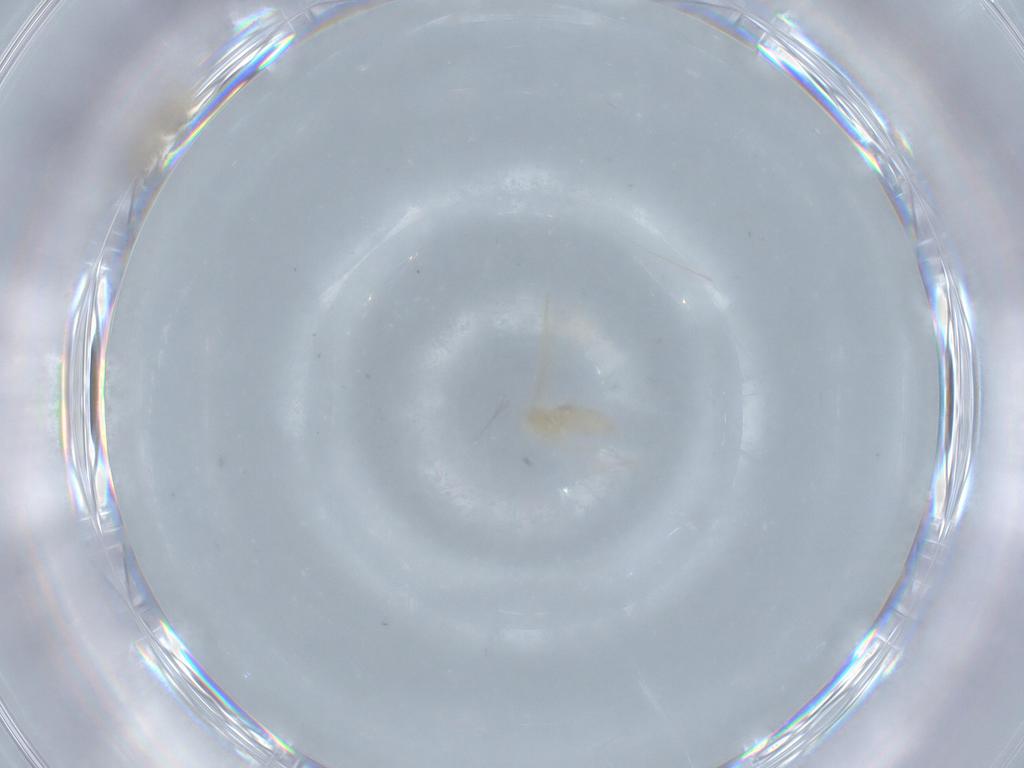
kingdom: Animalia
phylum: Arthropoda
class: Insecta
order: Diptera
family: Cecidomyiidae
